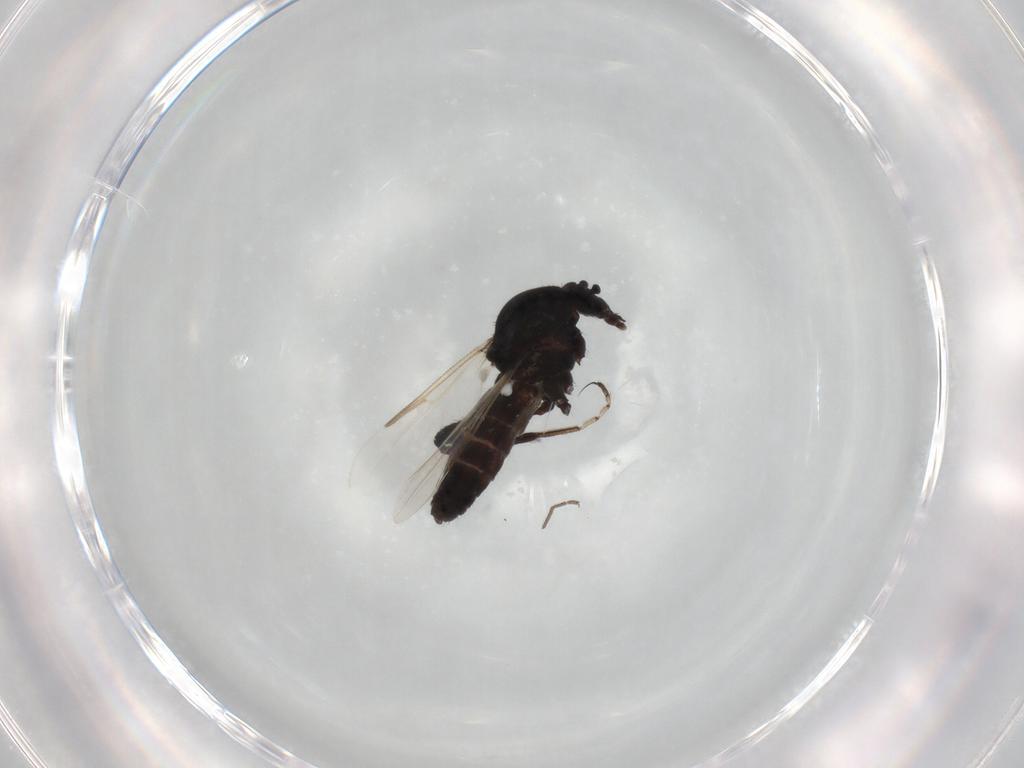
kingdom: Animalia
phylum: Arthropoda
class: Insecta
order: Diptera
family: Ceratopogonidae
